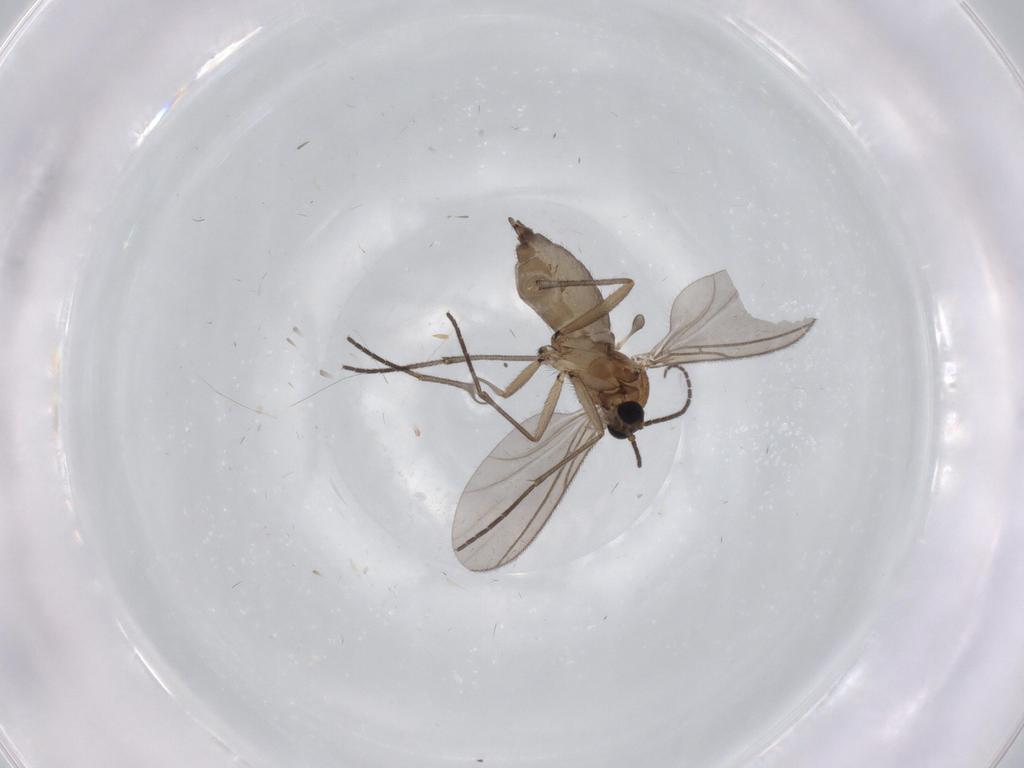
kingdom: Animalia
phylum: Arthropoda
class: Insecta
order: Diptera
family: Sciaridae
